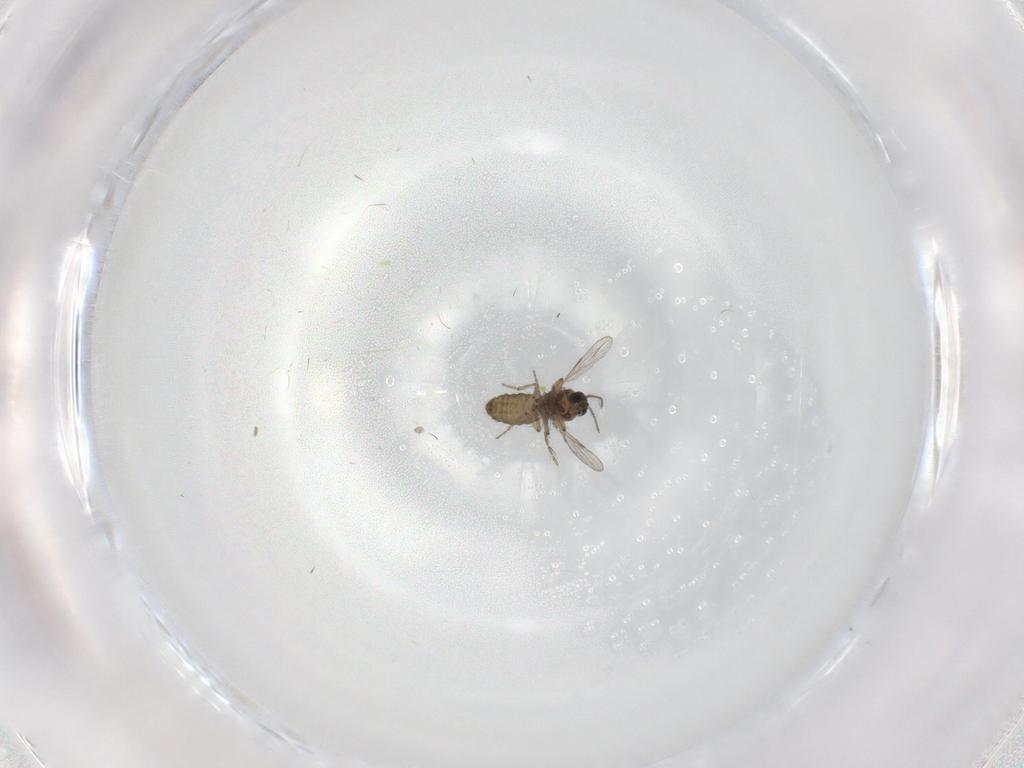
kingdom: Animalia
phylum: Arthropoda
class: Insecta
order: Diptera
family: Ceratopogonidae
